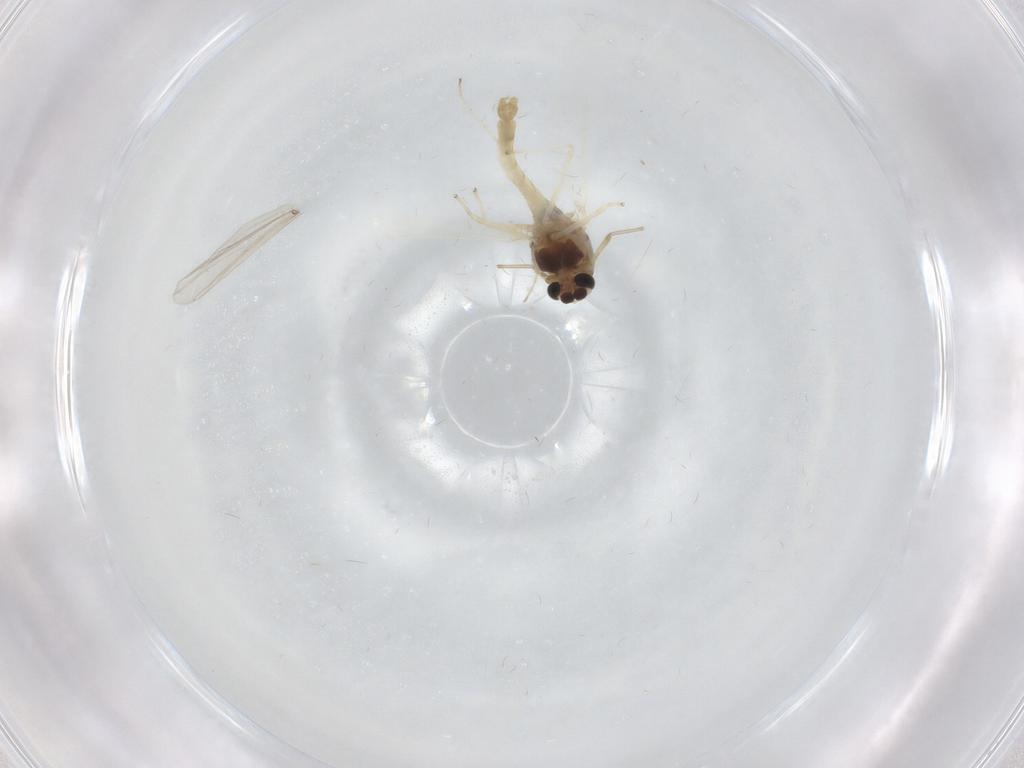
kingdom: Animalia
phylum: Arthropoda
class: Insecta
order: Diptera
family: Chironomidae
